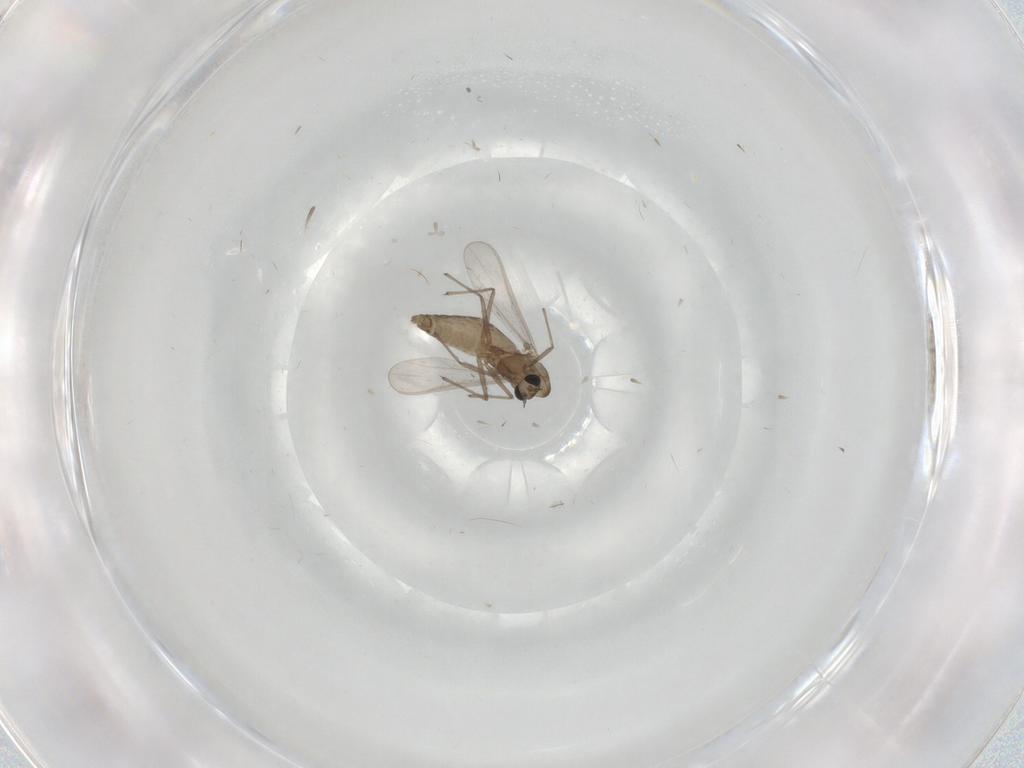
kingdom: Animalia
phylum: Arthropoda
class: Insecta
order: Diptera
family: Chironomidae
